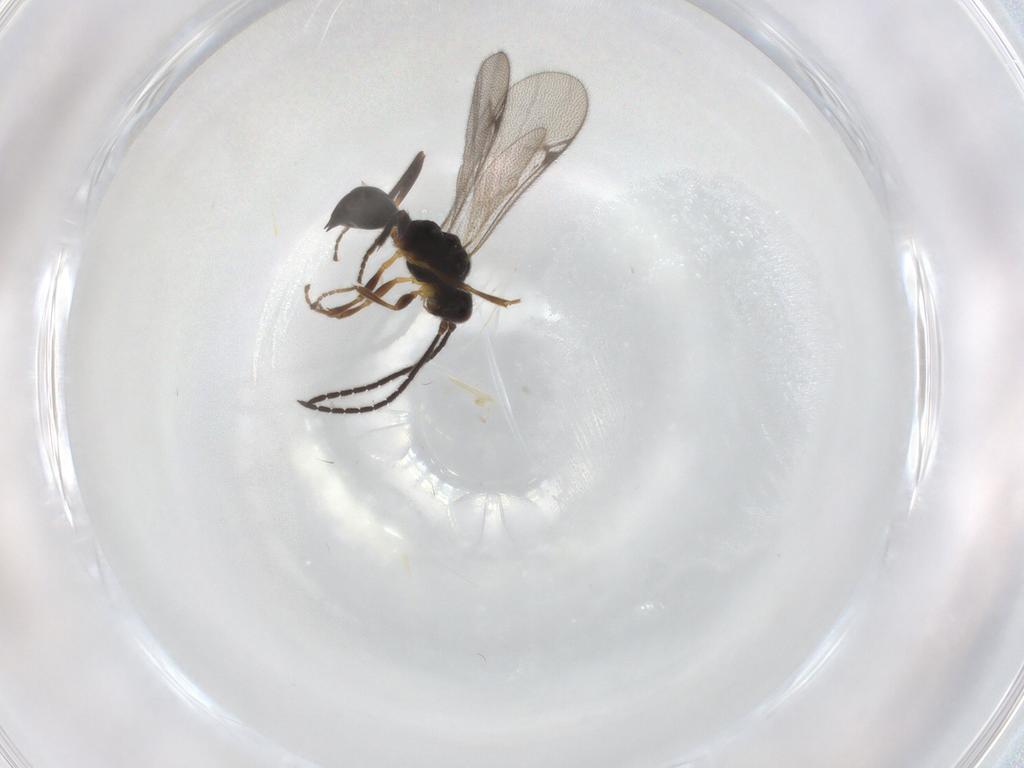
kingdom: Animalia
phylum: Arthropoda
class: Insecta
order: Hymenoptera
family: Proctotrupidae
